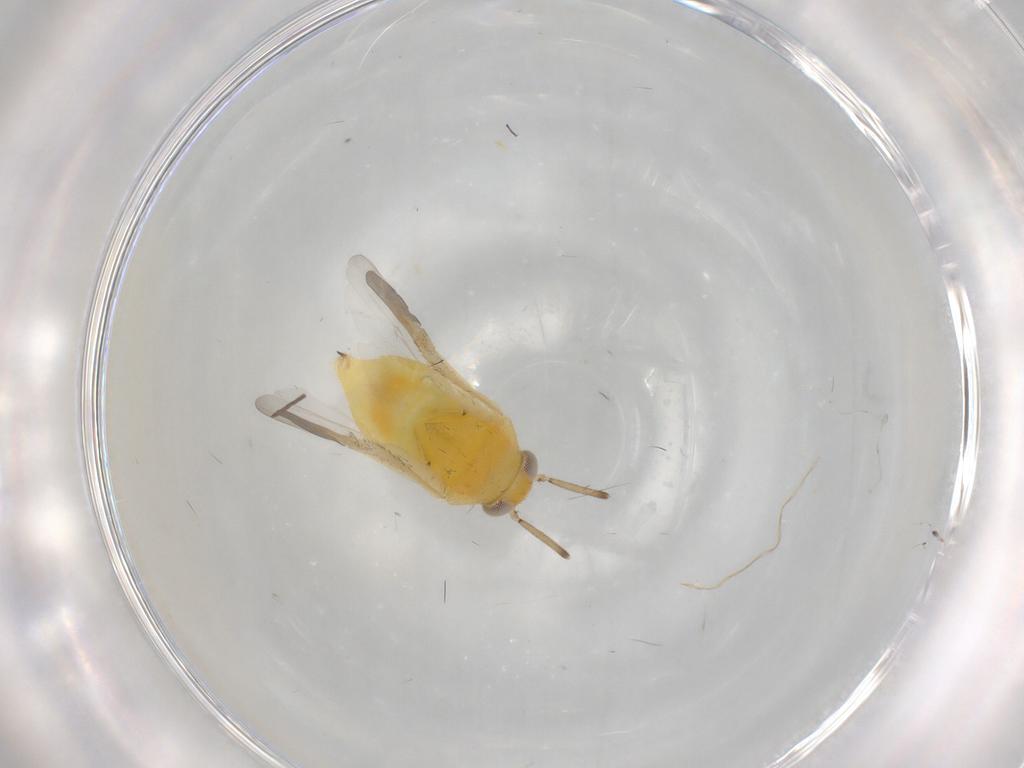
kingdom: Animalia
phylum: Arthropoda
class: Insecta
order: Hemiptera
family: Miridae
